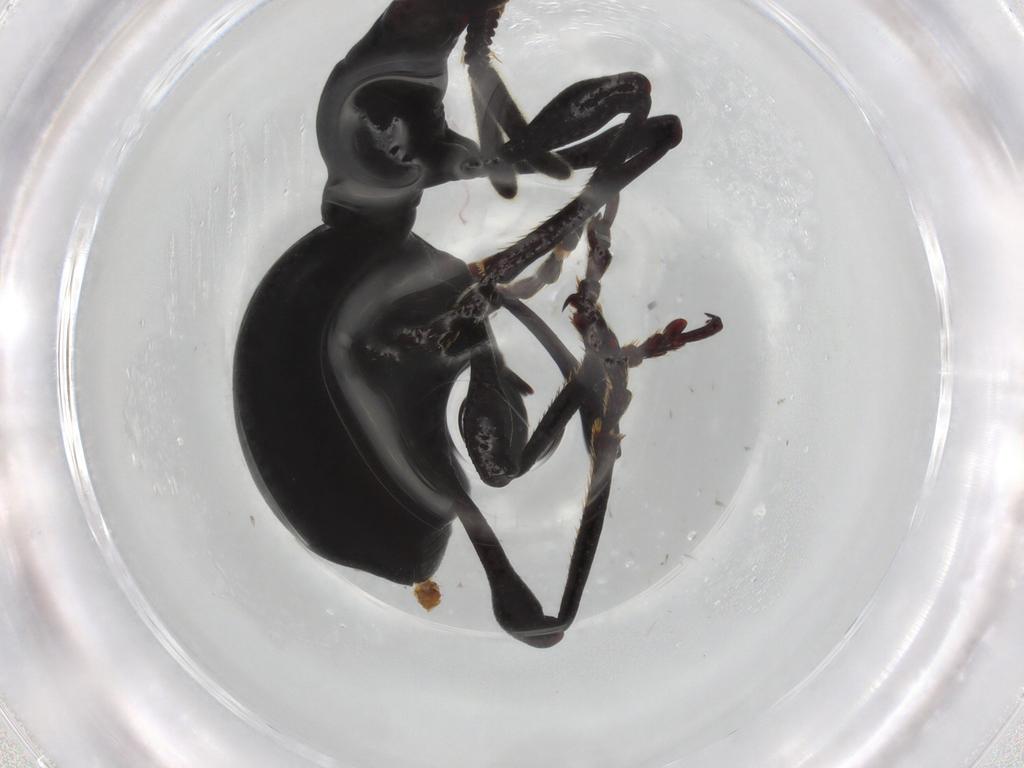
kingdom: Animalia
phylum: Arthropoda
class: Insecta
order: Coleoptera
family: Brentidae
